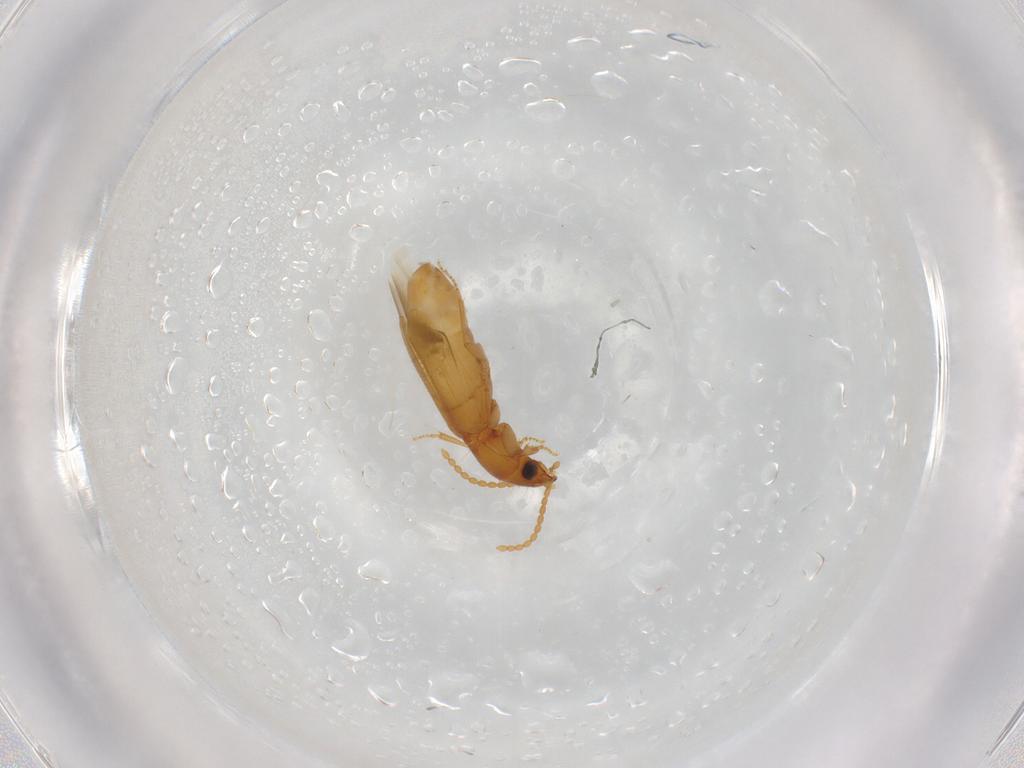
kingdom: Animalia
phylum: Arthropoda
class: Insecta
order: Coleoptera
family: Carabidae
